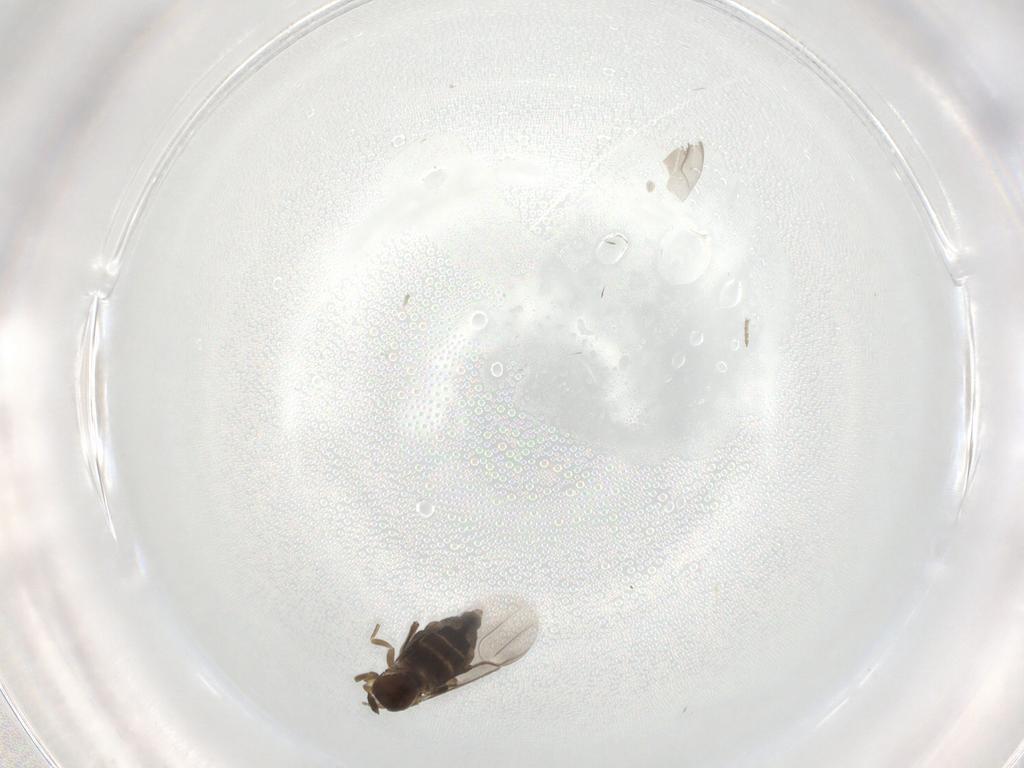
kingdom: Animalia
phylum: Arthropoda
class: Insecta
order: Diptera
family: Phoridae
